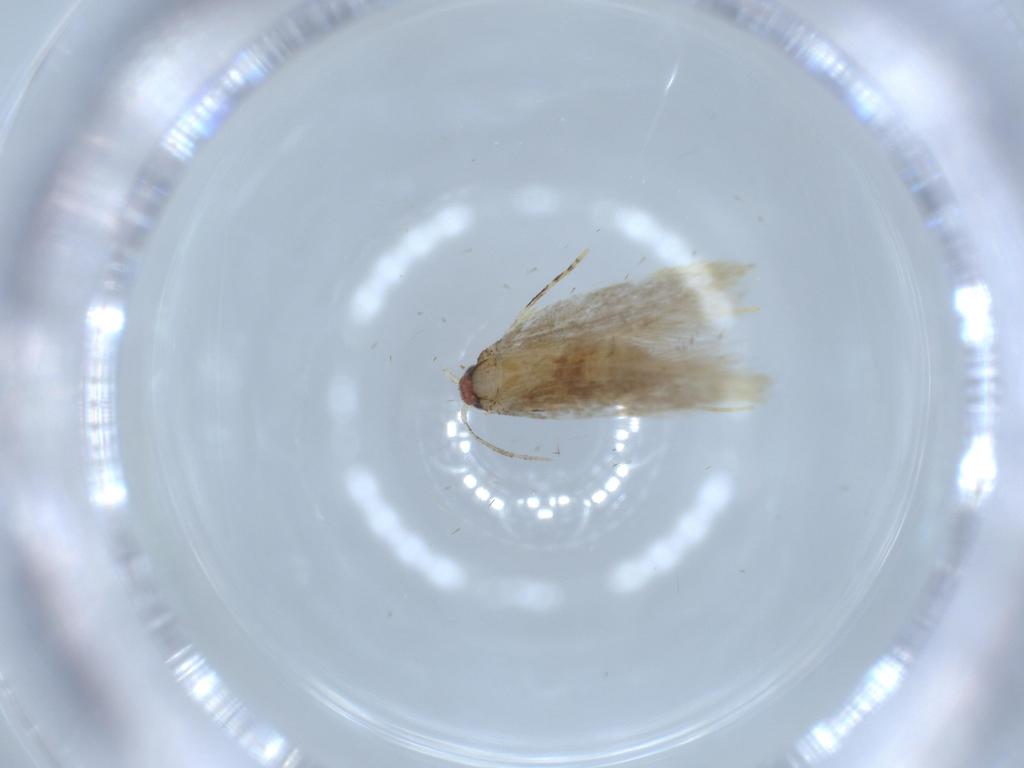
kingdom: Animalia
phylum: Arthropoda
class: Insecta
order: Lepidoptera
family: Tineidae
